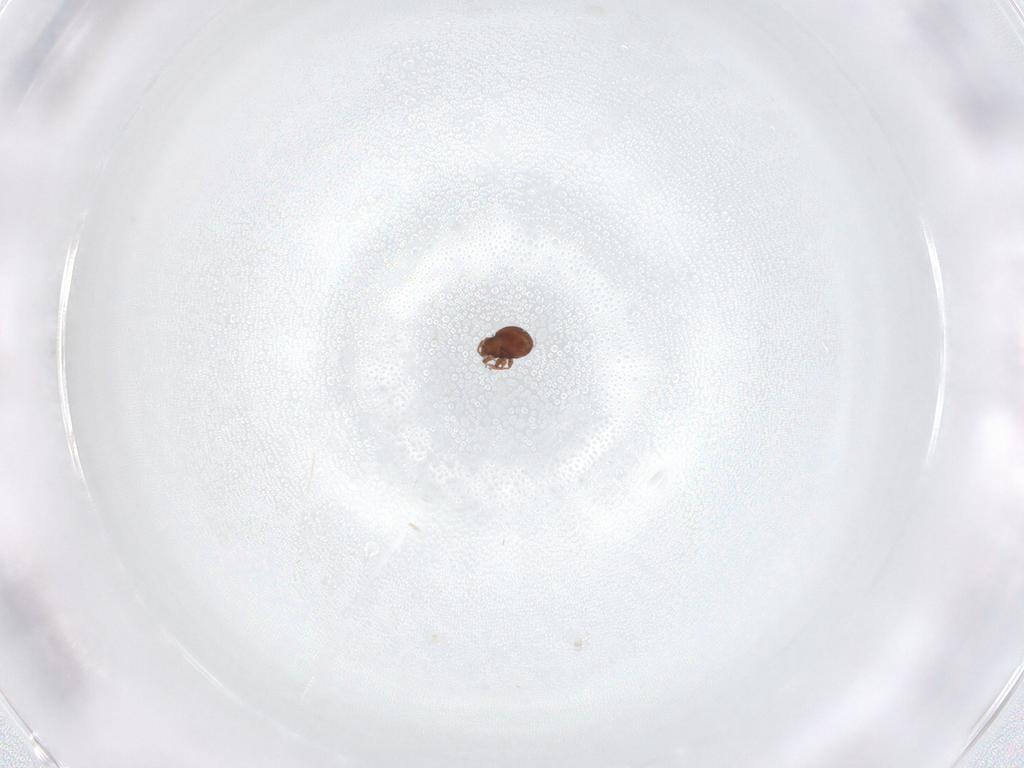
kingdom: Animalia
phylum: Arthropoda
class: Arachnida
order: Sarcoptiformes
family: Scheloribatidae
